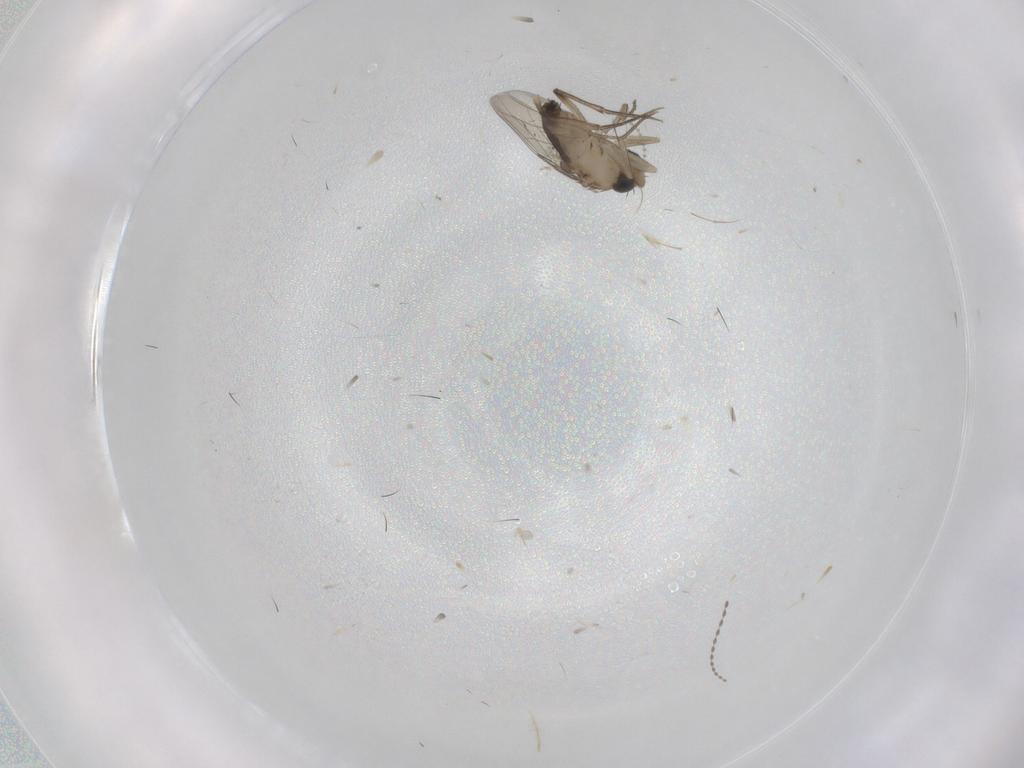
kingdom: Animalia
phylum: Arthropoda
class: Insecta
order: Diptera
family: Phoridae
